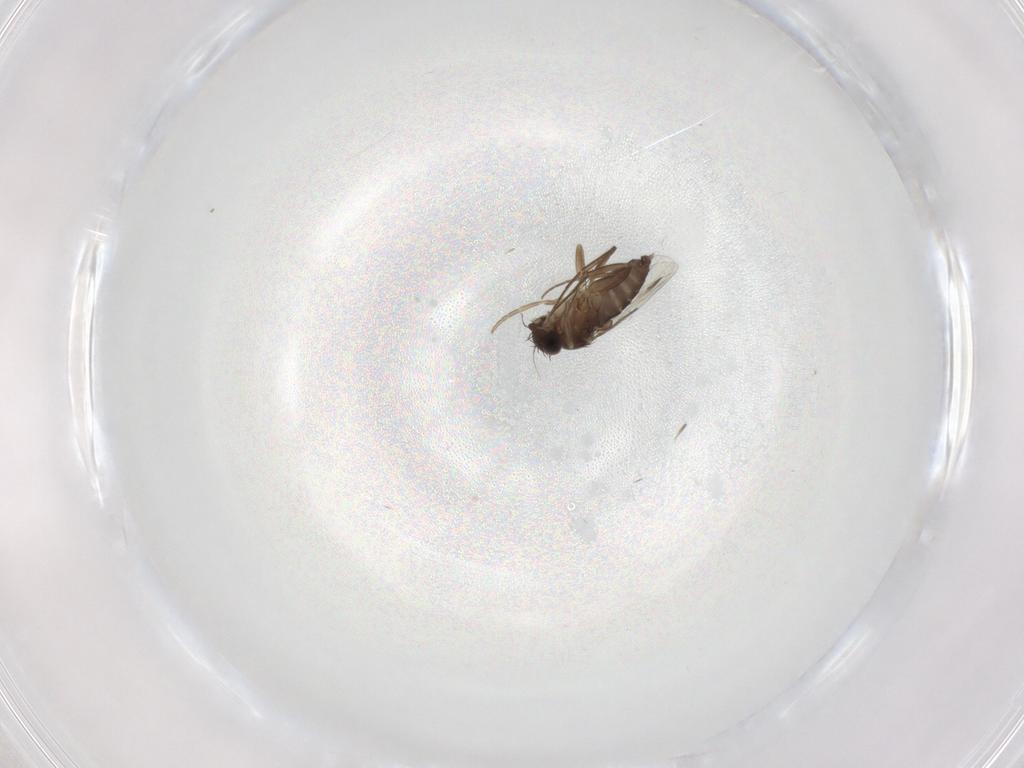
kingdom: Animalia
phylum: Arthropoda
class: Insecta
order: Diptera
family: Phoridae
